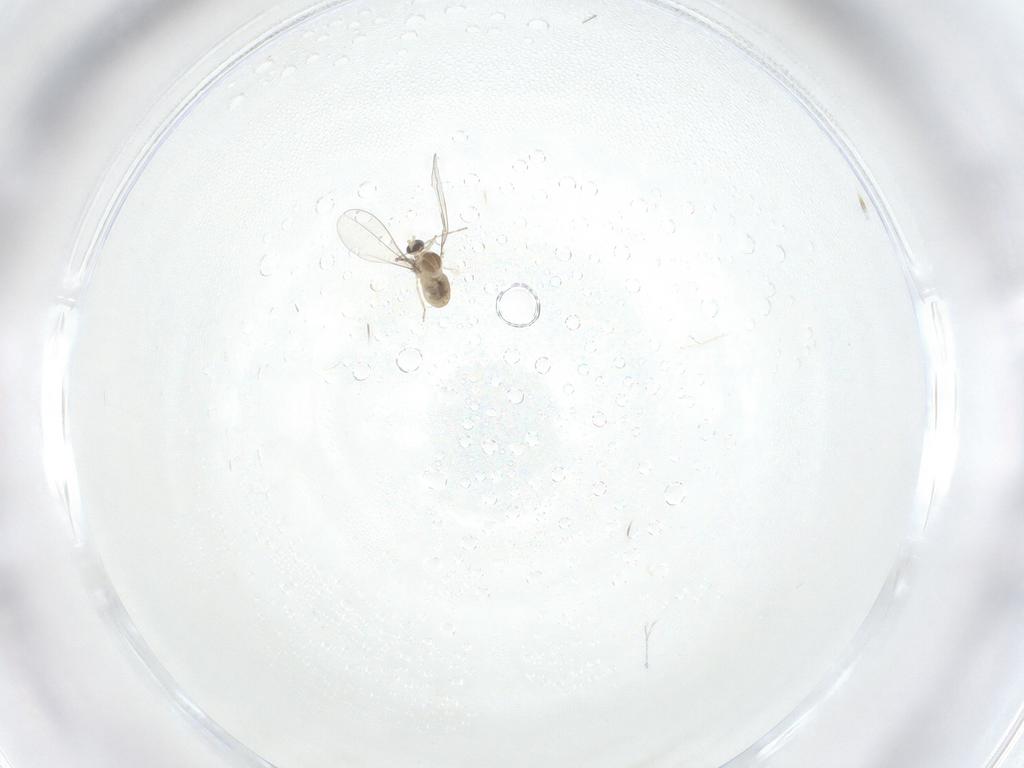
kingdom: Animalia
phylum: Arthropoda
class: Insecta
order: Diptera
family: Cecidomyiidae
